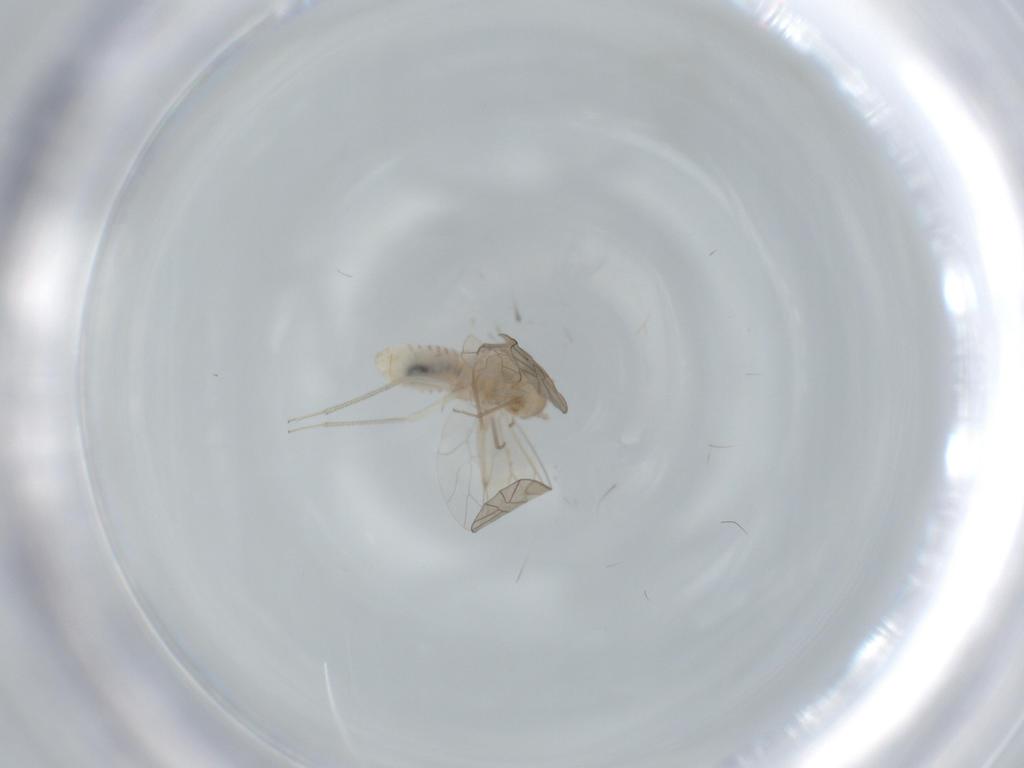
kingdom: Animalia
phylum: Arthropoda
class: Insecta
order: Psocodea
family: Lachesillidae
